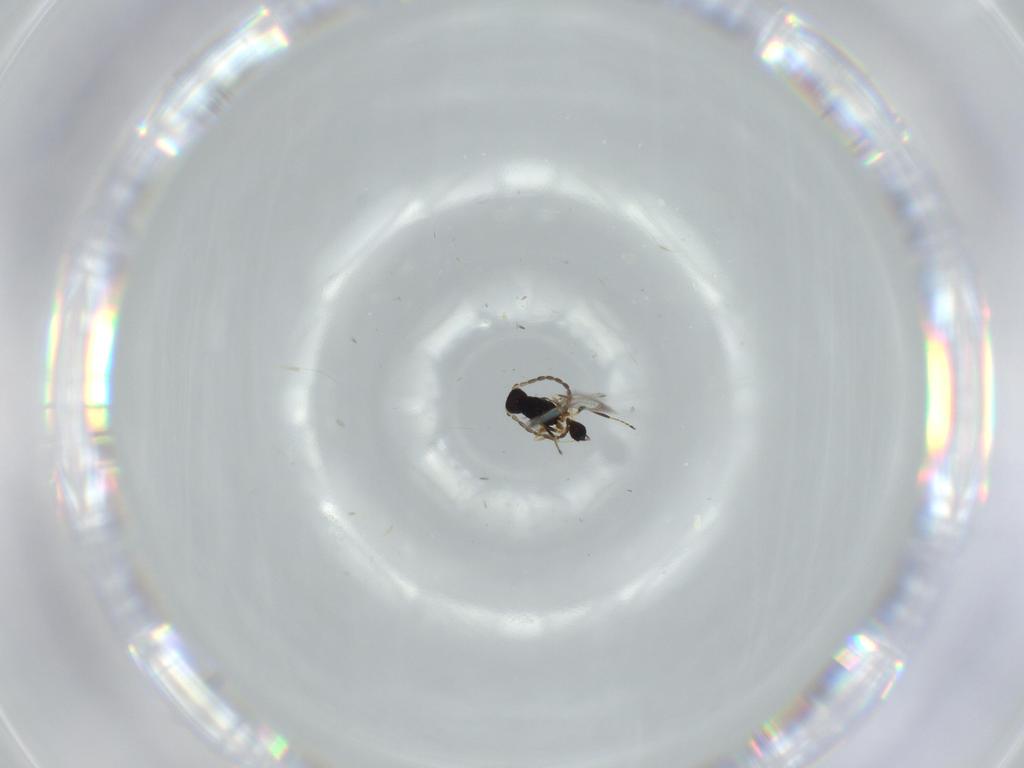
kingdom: Animalia
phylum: Arthropoda
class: Insecta
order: Hymenoptera
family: Mymaridae
